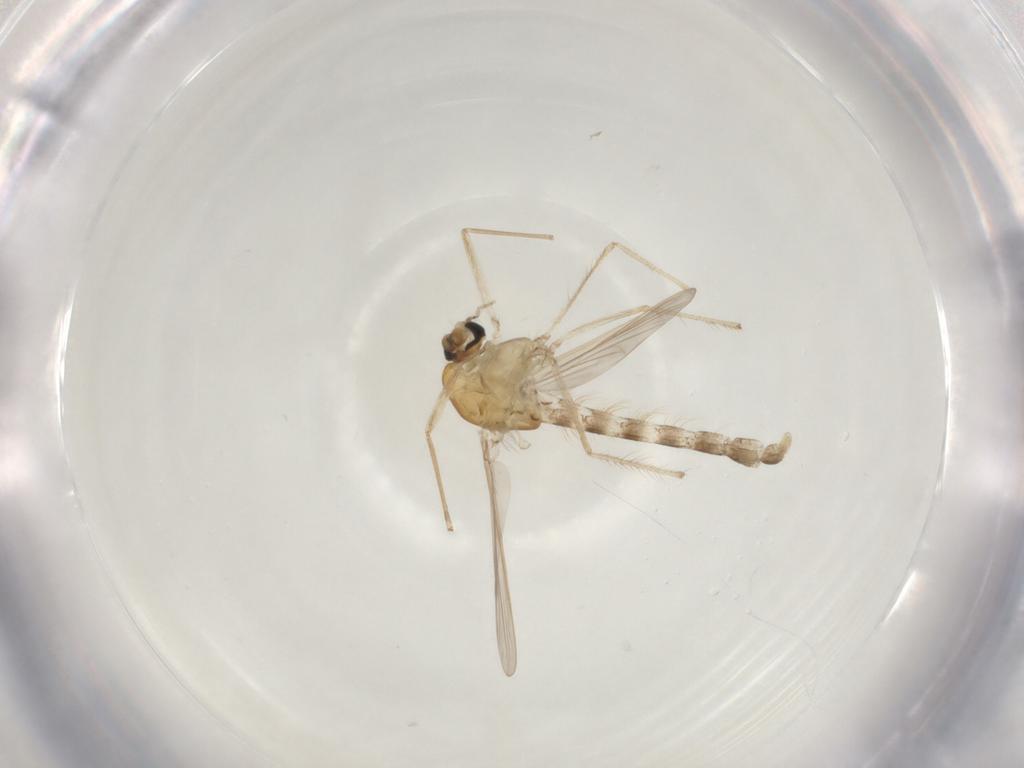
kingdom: Animalia
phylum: Arthropoda
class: Insecta
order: Diptera
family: Chironomidae
